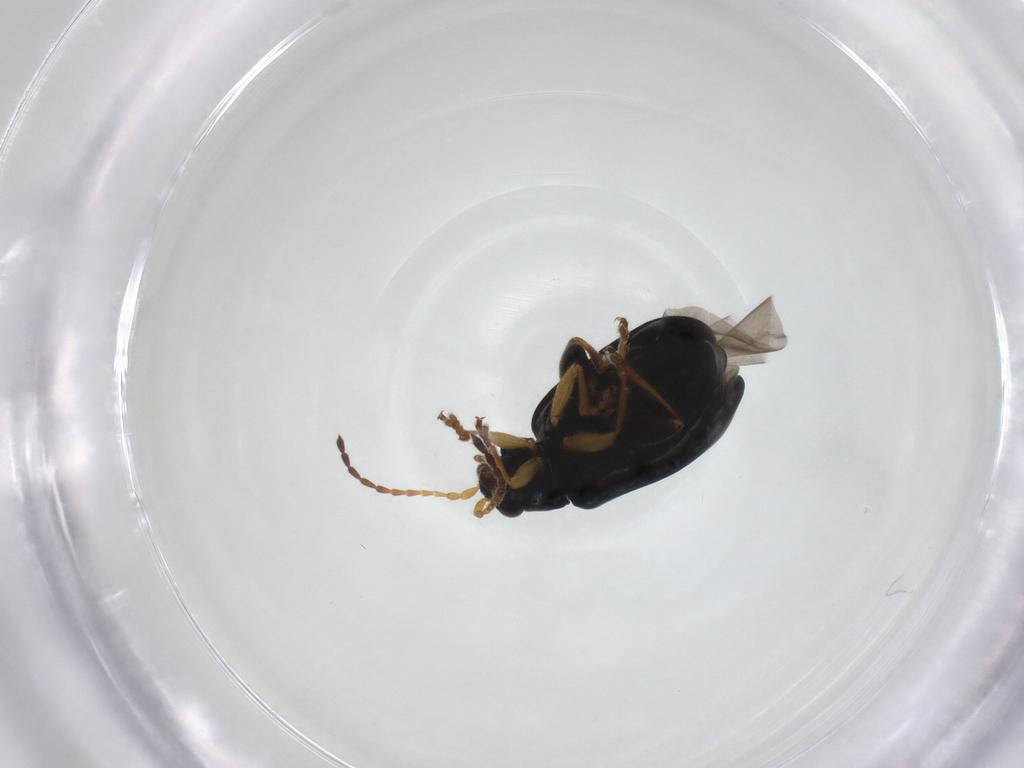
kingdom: Animalia
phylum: Arthropoda
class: Insecta
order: Coleoptera
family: Chrysomelidae
